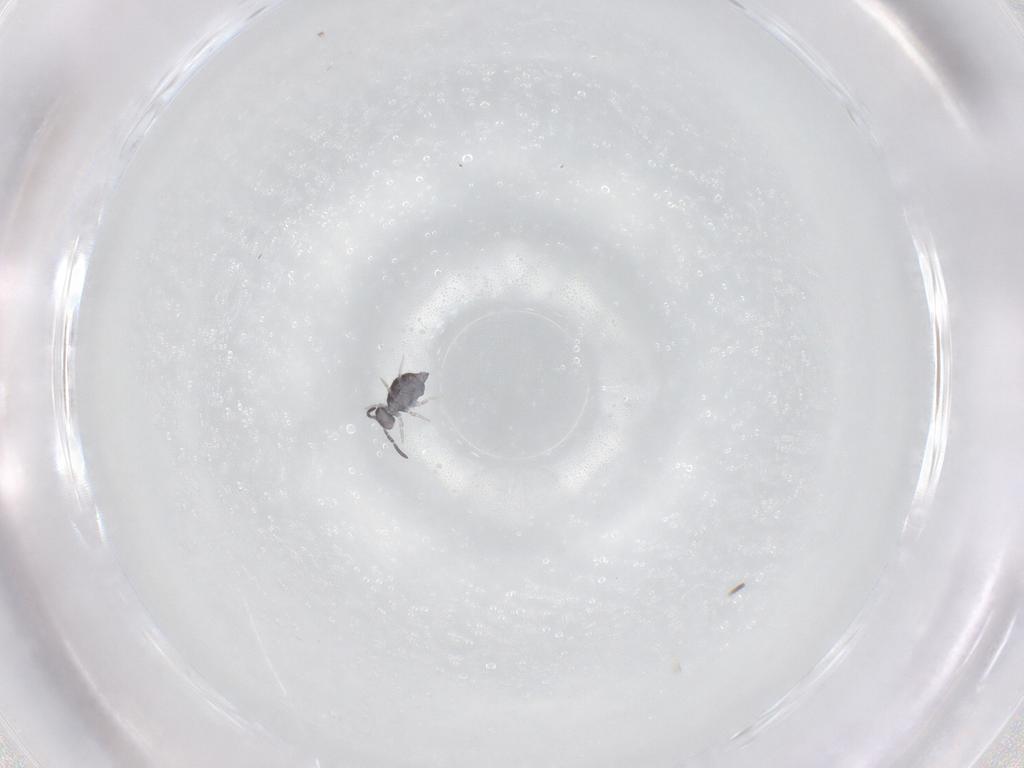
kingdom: Animalia
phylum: Arthropoda
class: Collembola
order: Symphypleona
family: Katiannidae
